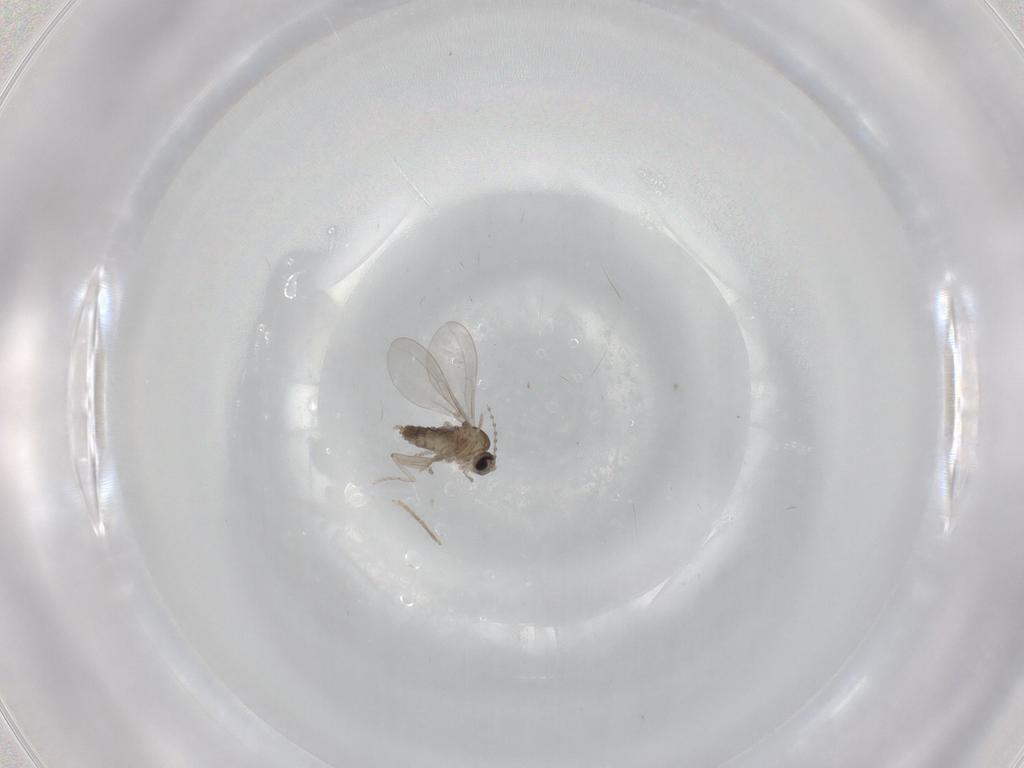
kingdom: Animalia
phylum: Arthropoda
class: Insecta
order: Diptera
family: Cecidomyiidae
